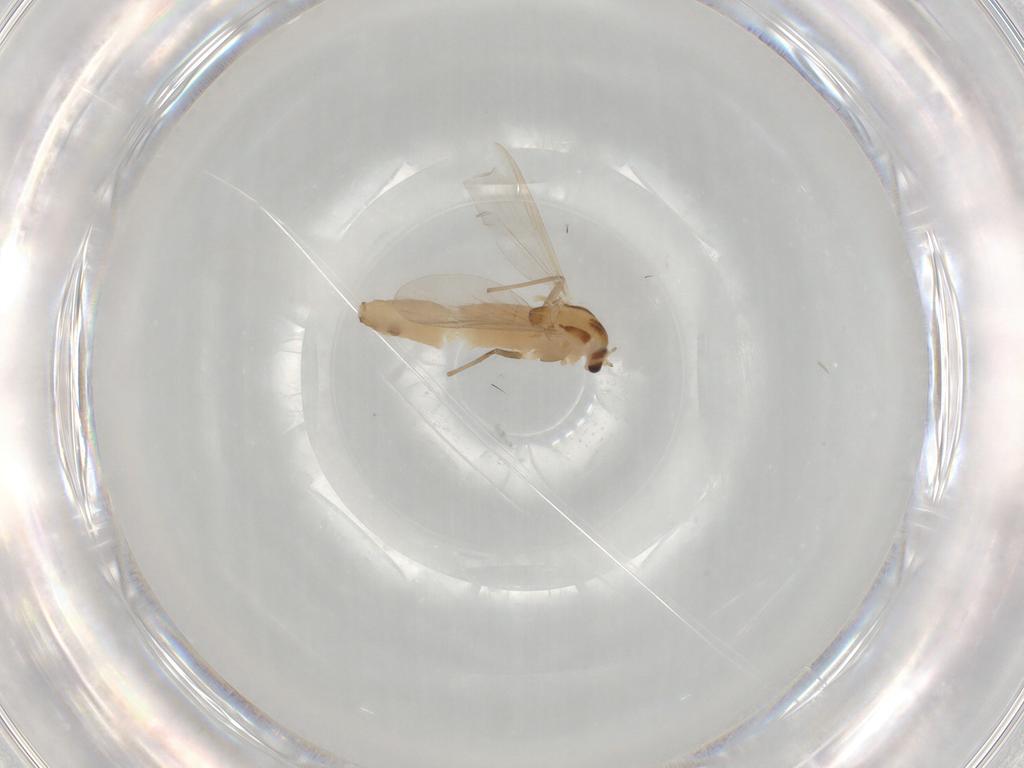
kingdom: Animalia
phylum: Arthropoda
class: Insecta
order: Diptera
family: Chironomidae
